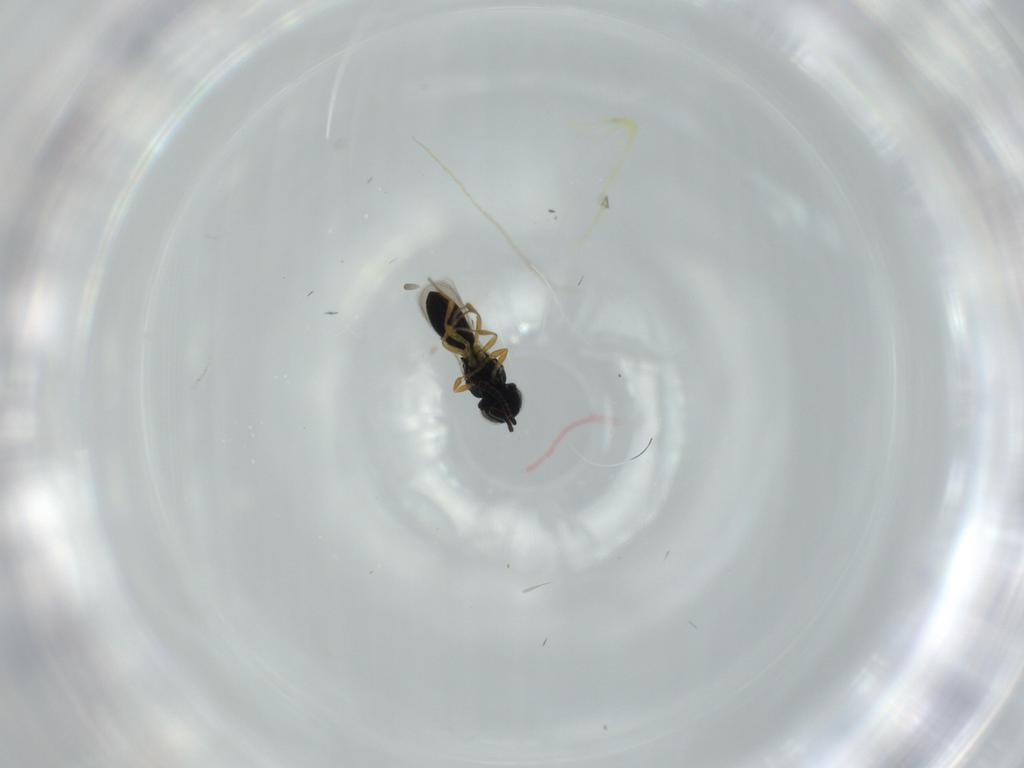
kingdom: Animalia
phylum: Arthropoda
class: Insecta
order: Hymenoptera
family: Scelionidae
